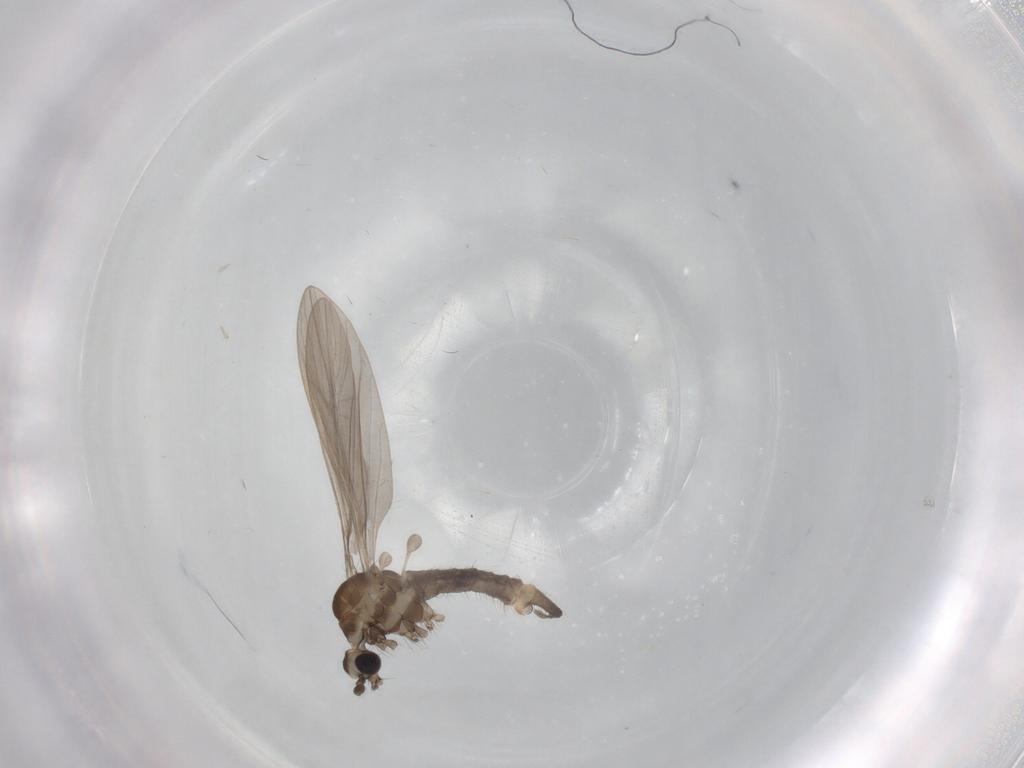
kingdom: Animalia
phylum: Arthropoda
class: Insecta
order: Diptera
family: Limoniidae
